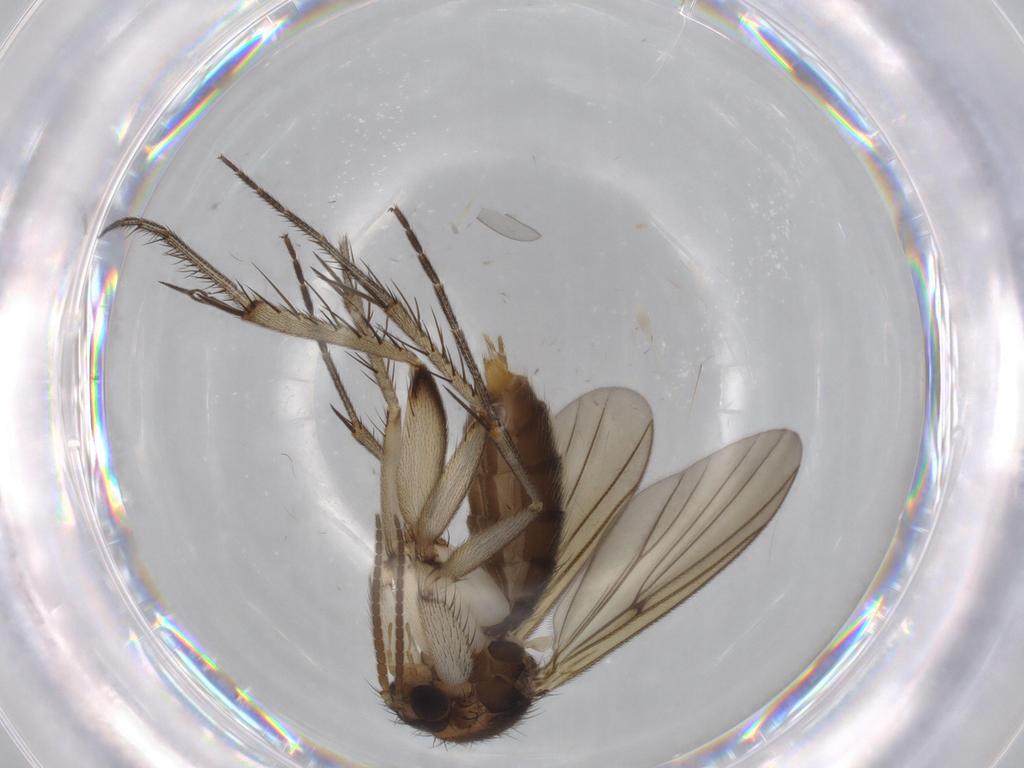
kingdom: Animalia
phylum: Arthropoda
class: Insecta
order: Diptera
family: Mycetophilidae
